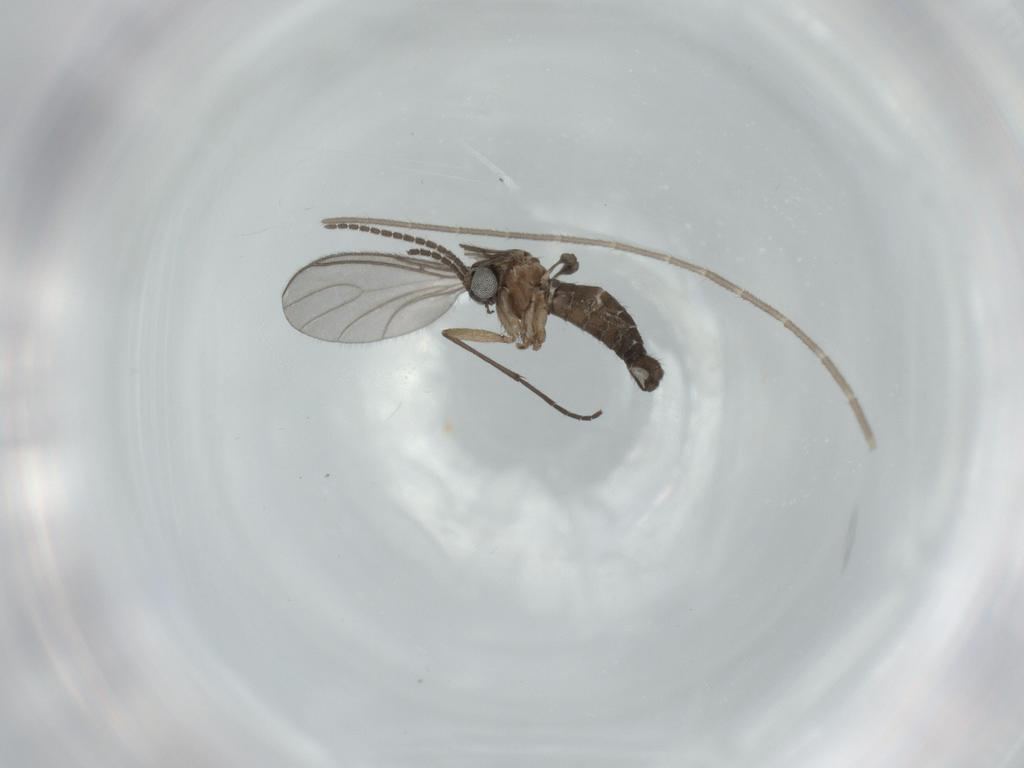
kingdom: Animalia
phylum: Arthropoda
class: Insecta
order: Diptera
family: Sciaridae
